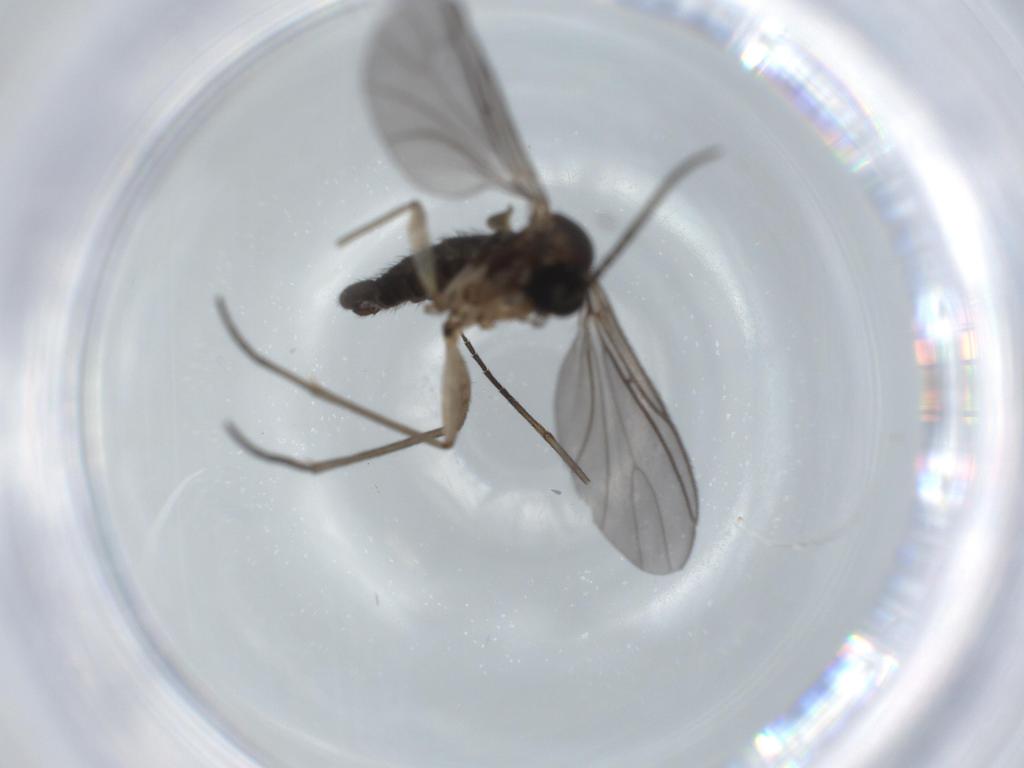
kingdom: Animalia
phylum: Arthropoda
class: Insecta
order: Diptera
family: Sciaridae
